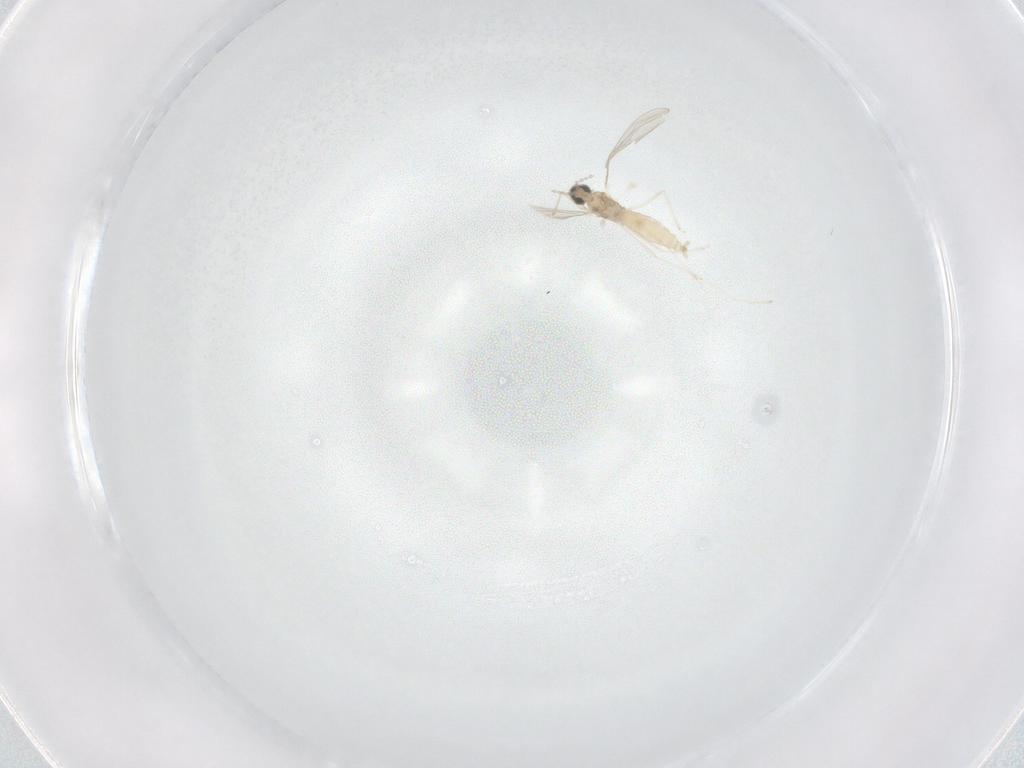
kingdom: Animalia
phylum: Arthropoda
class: Insecta
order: Diptera
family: Cecidomyiidae
